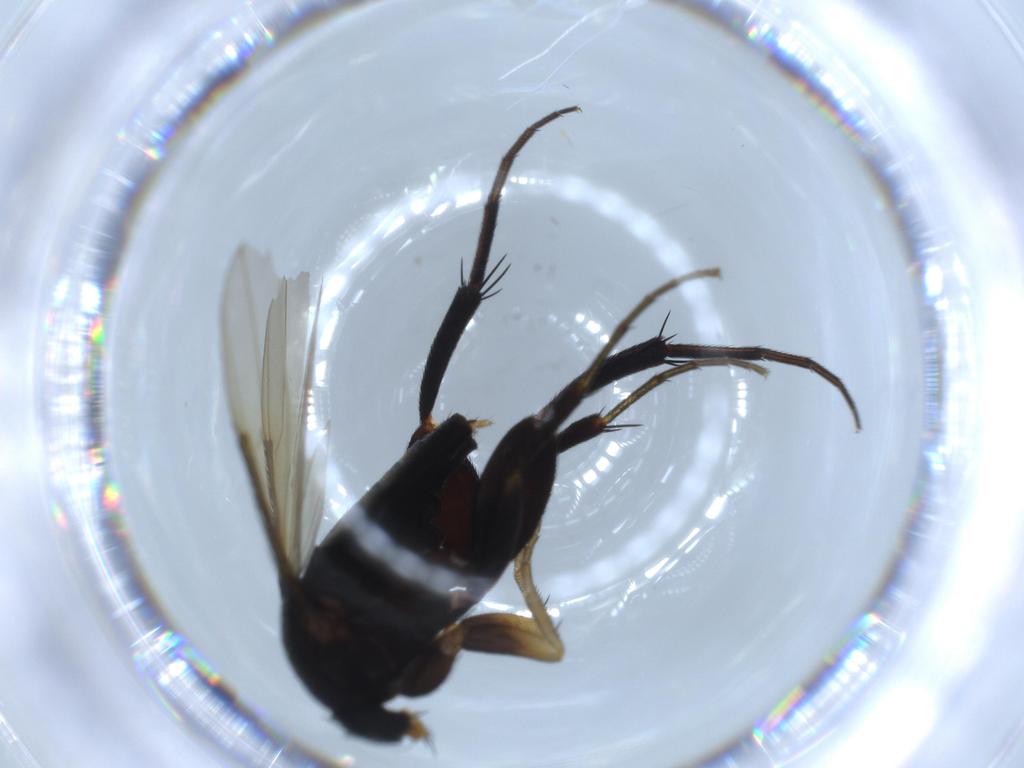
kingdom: Animalia
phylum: Arthropoda
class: Insecta
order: Diptera
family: Phoridae
